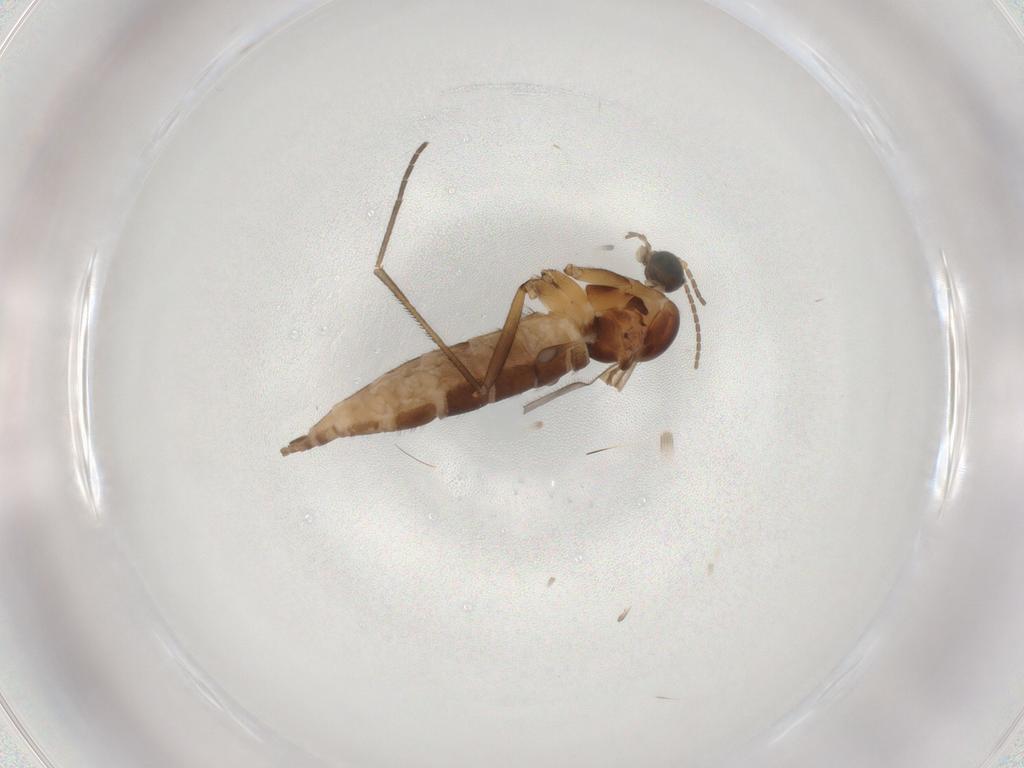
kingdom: Animalia
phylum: Arthropoda
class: Insecta
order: Diptera
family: Sciaridae
